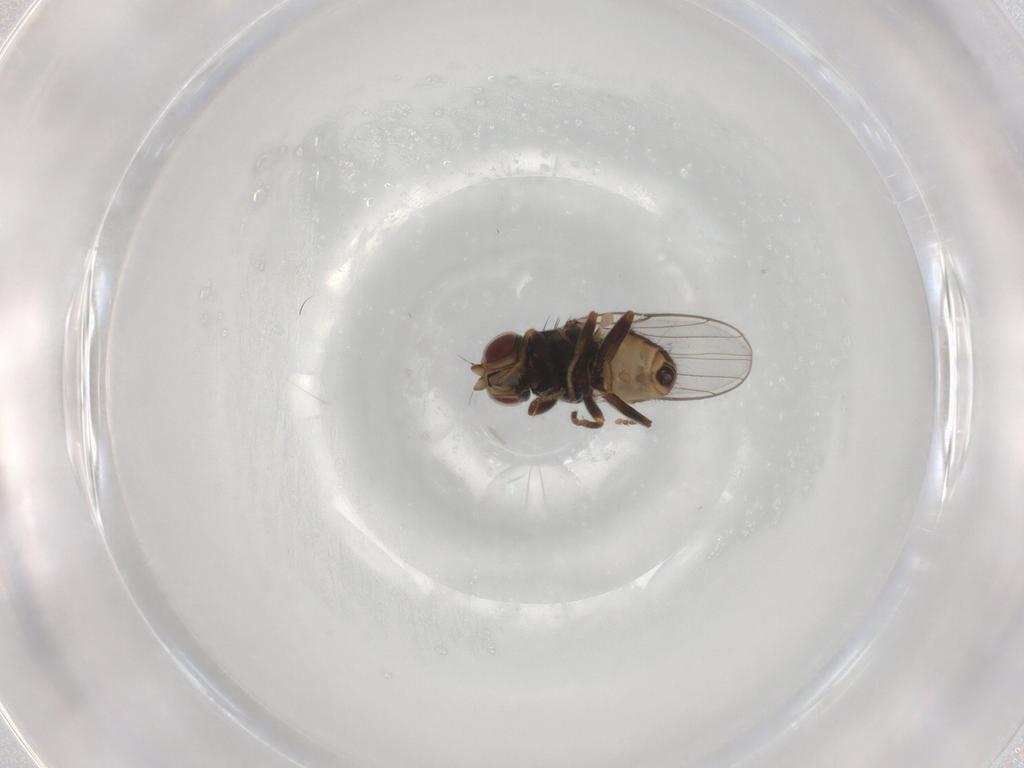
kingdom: Animalia
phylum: Arthropoda
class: Insecta
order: Diptera
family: Chloropidae
